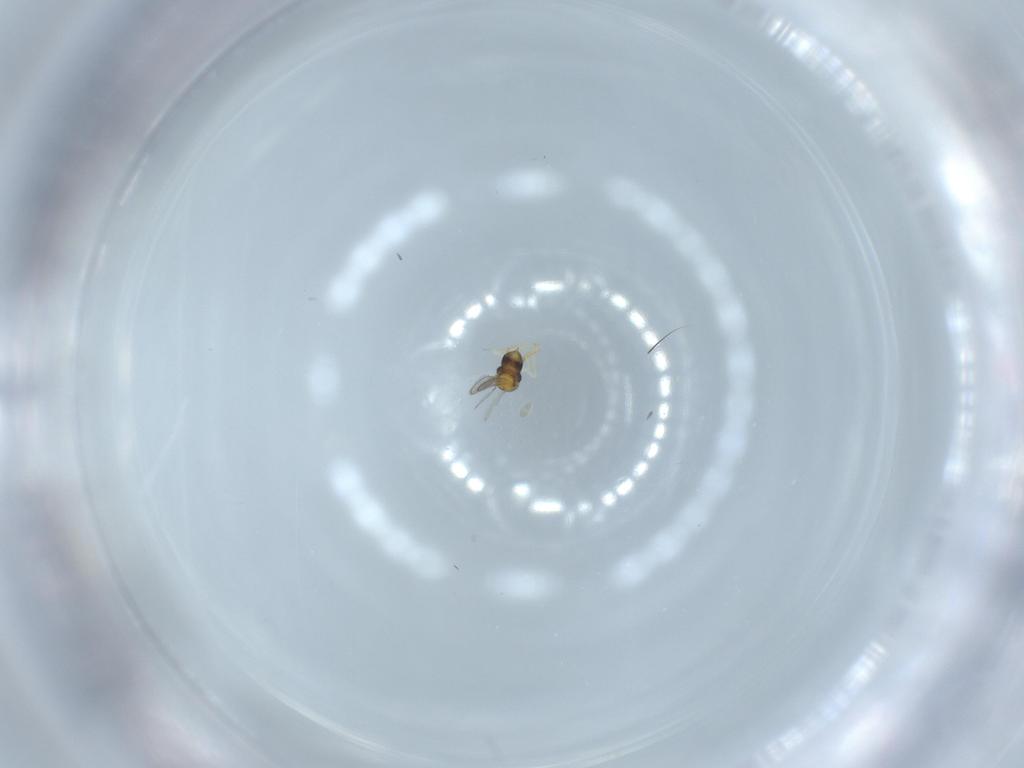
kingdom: Animalia
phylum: Arthropoda
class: Insecta
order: Hymenoptera
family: Aphelinidae
